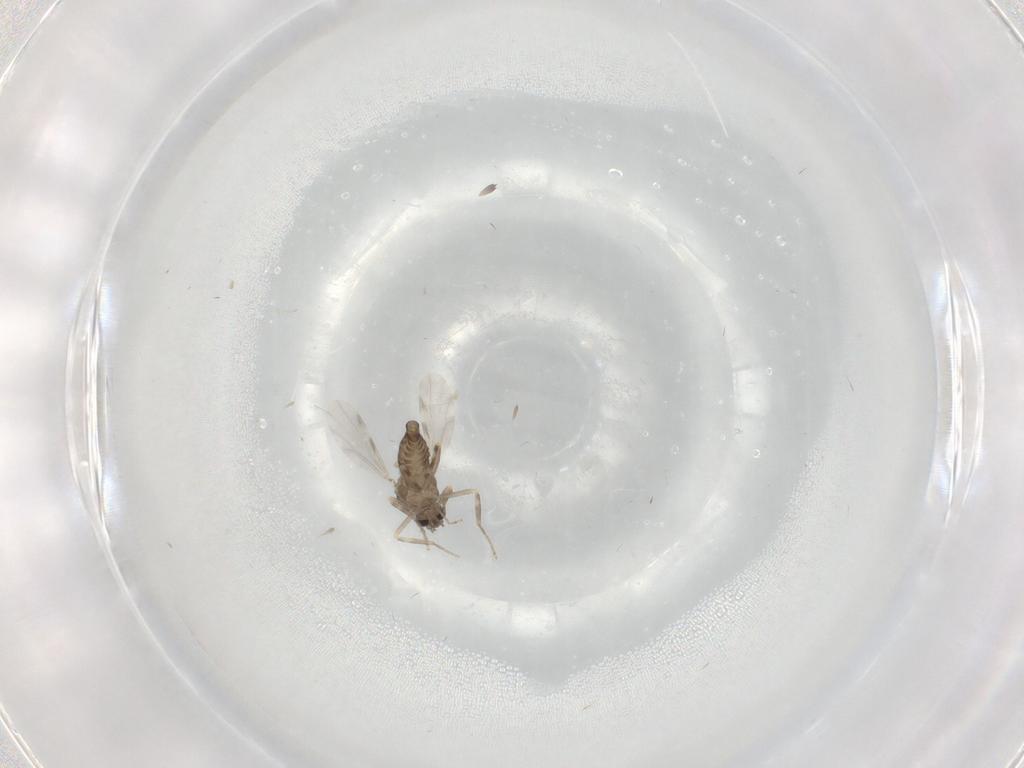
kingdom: Animalia
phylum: Arthropoda
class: Insecta
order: Diptera
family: Ceratopogonidae
